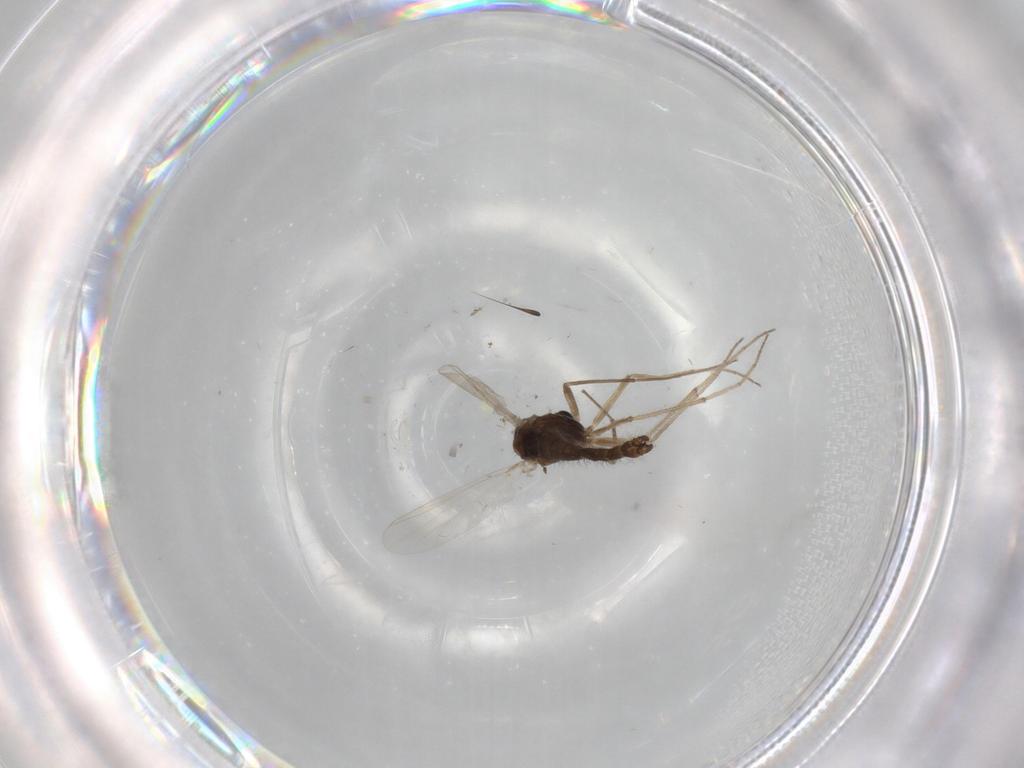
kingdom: Animalia
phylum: Arthropoda
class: Insecta
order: Diptera
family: Chironomidae
